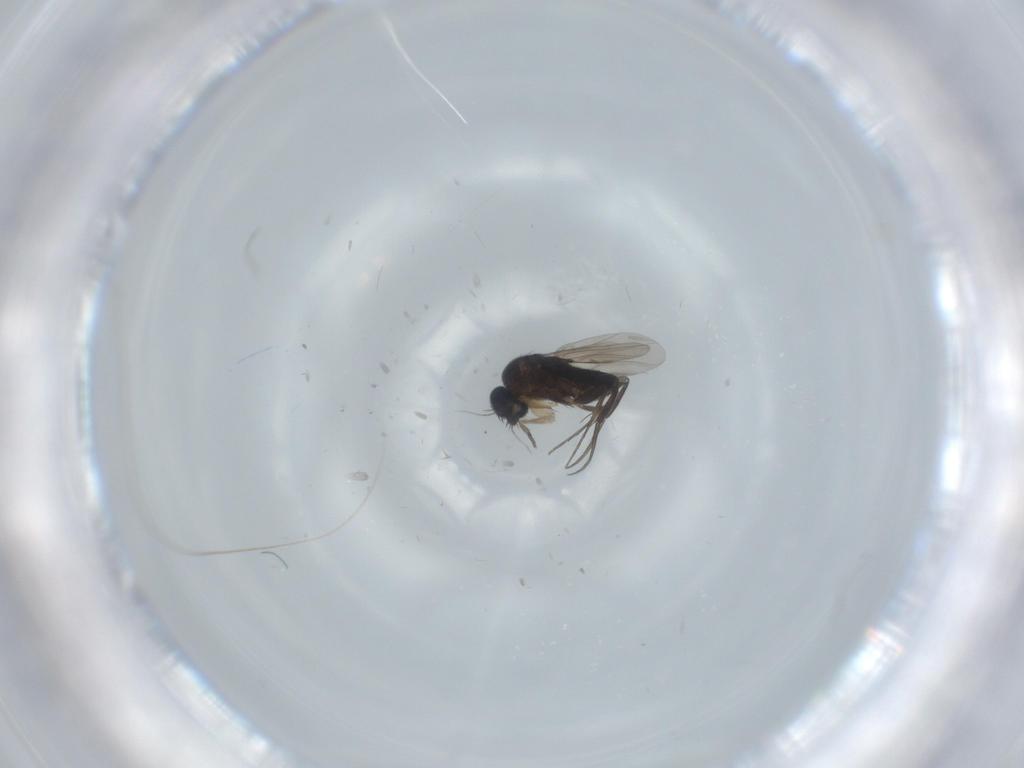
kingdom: Animalia
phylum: Arthropoda
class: Insecta
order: Diptera
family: Phoridae
